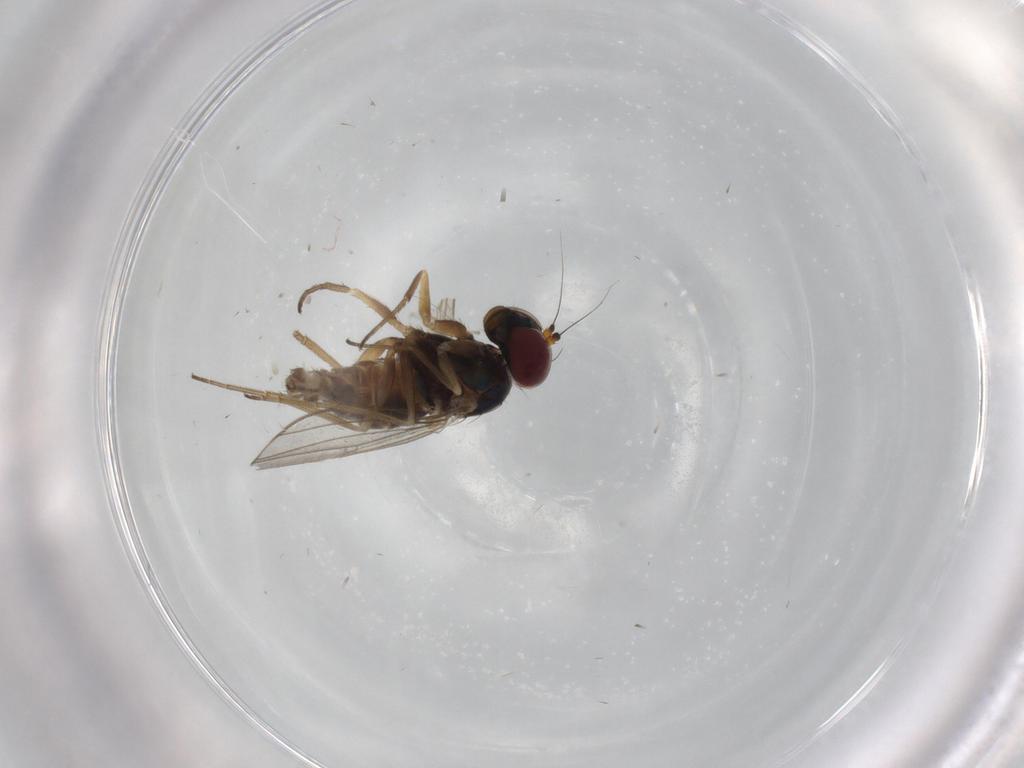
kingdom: Animalia
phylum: Arthropoda
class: Insecta
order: Diptera
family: Dolichopodidae
